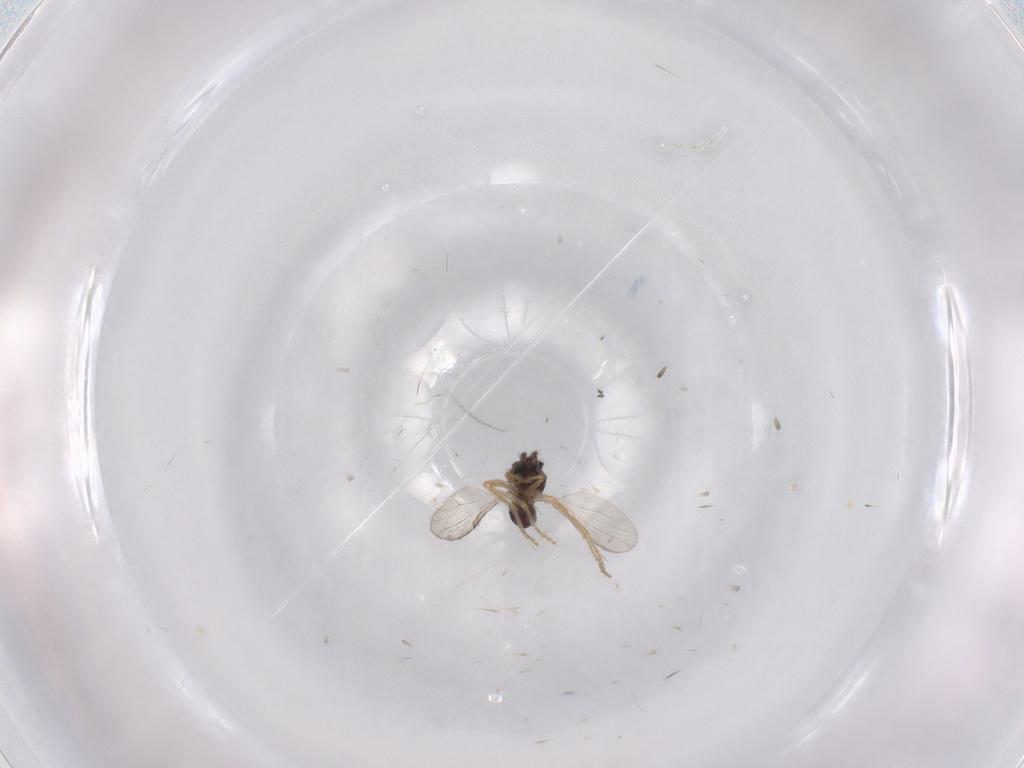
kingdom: Animalia
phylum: Arthropoda
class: Insecta
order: Diptera
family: Ceratopogonidae
